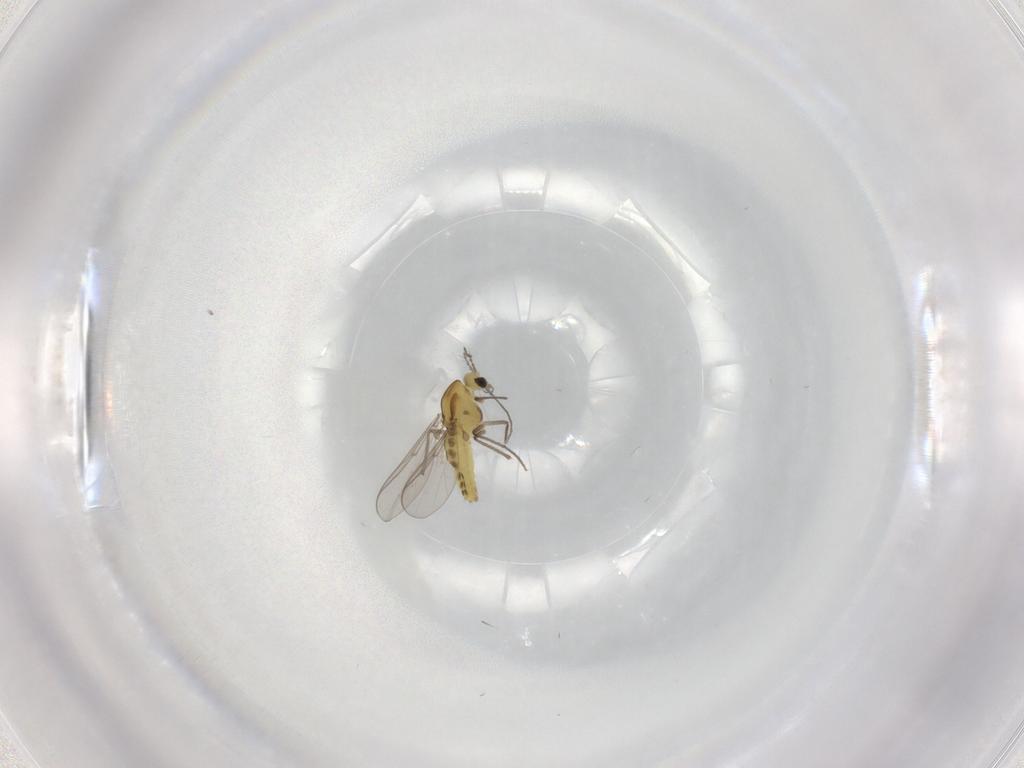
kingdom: Animalia
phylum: Arthropoda
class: Insecta
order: Diptera
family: Chironomidae
